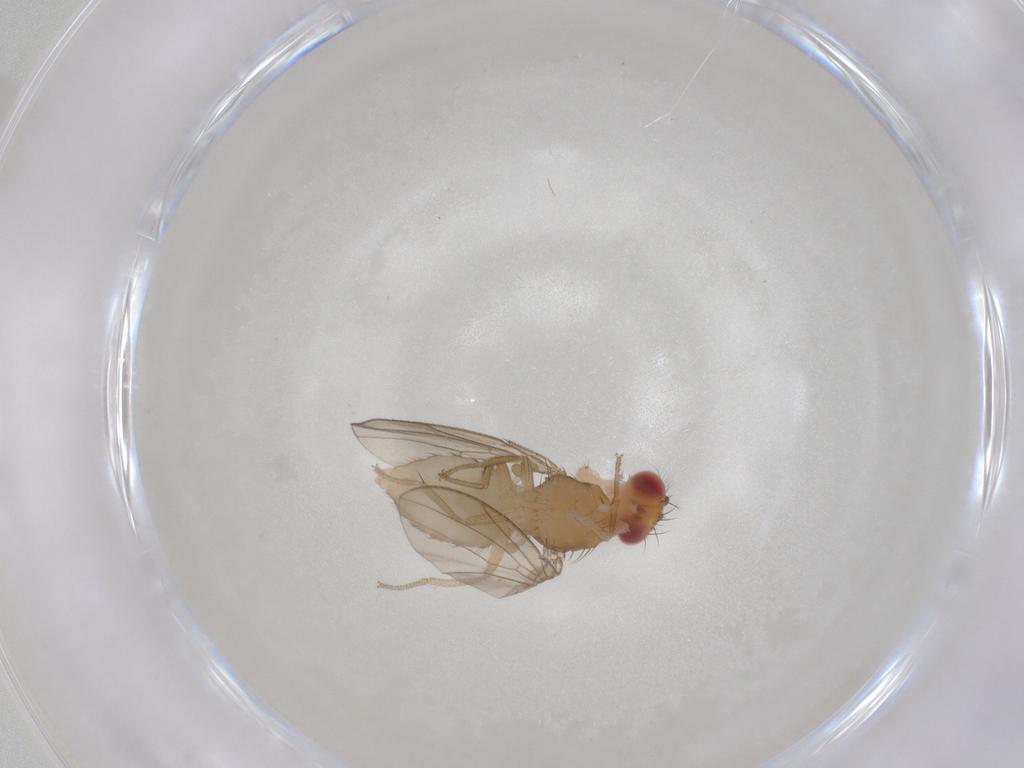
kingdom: Animalia
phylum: Arthropoda
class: Insecta
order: Diptera
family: Drosophilidae
